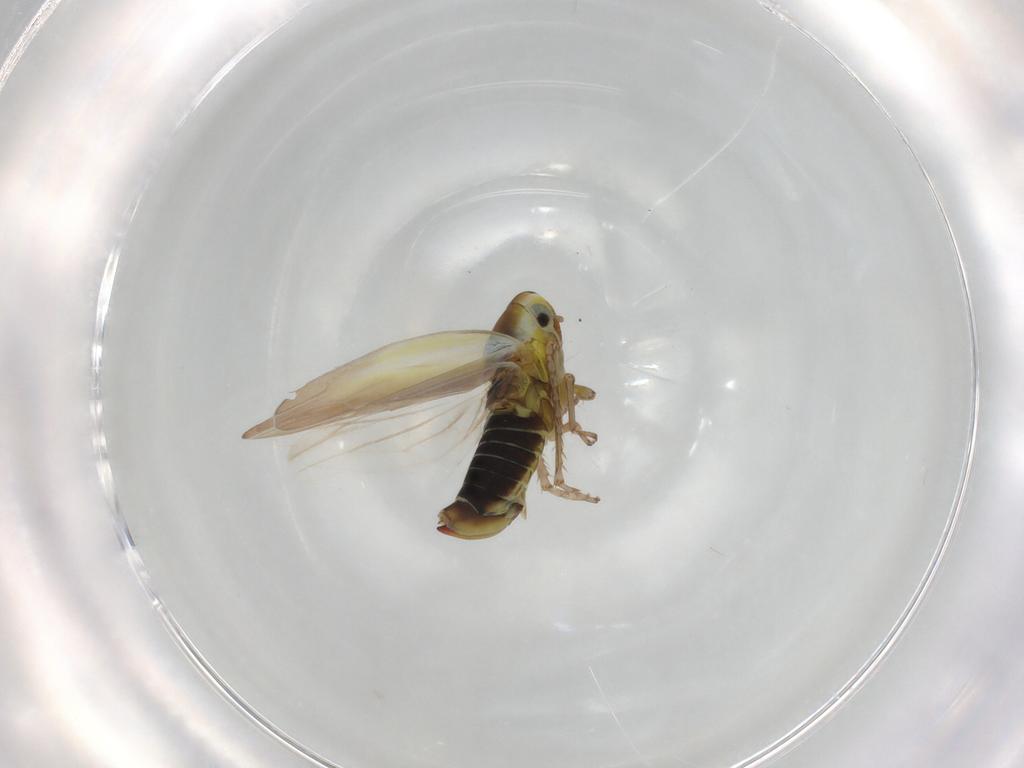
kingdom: Animalia
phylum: Arthropoda
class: Insecta
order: Hemiptera
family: Cicadellidae
